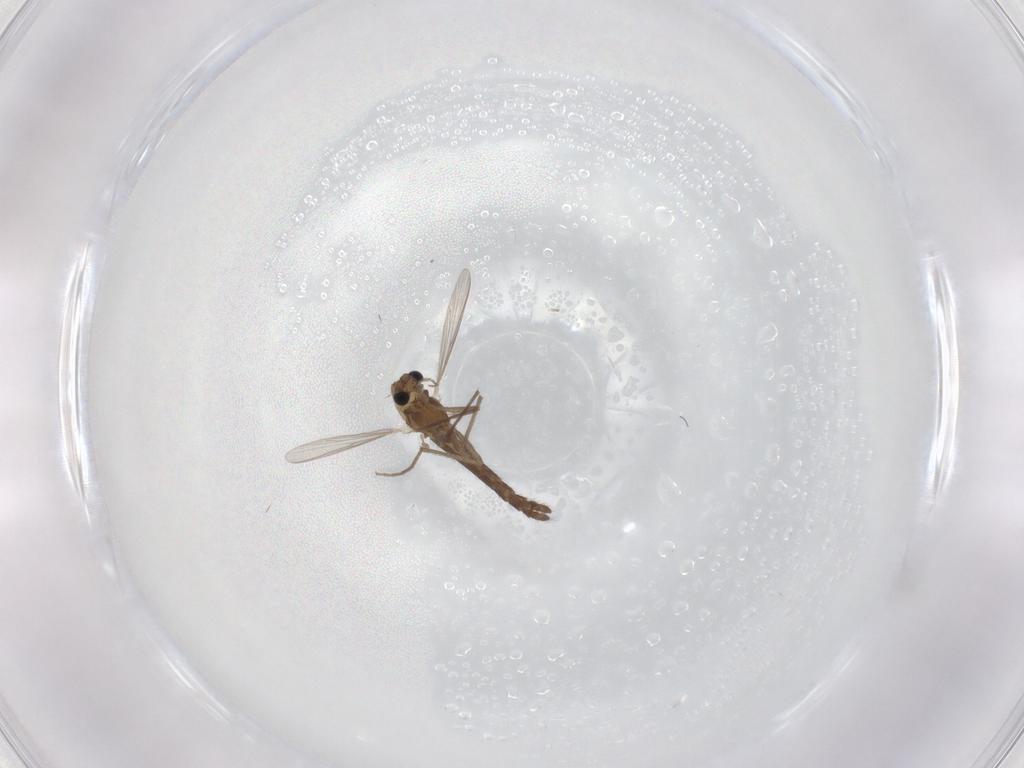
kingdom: Animalia
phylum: Arthropoda
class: Insecta
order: Diptera
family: Chironomidae
